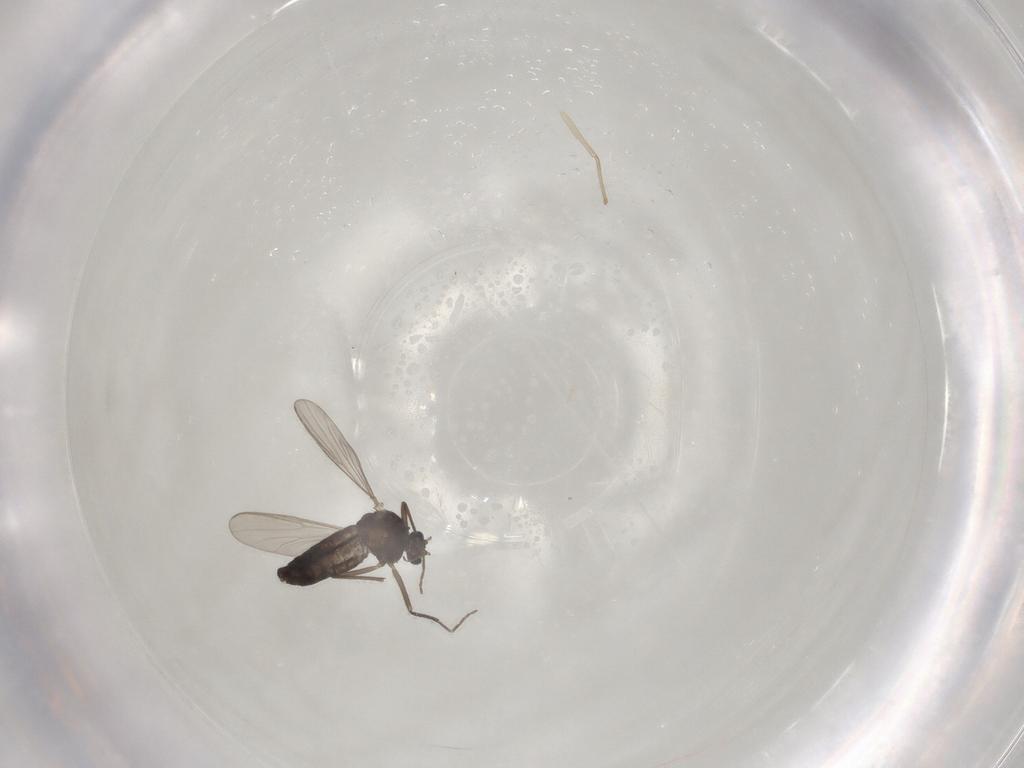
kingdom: Animalia
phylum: Arthropoda
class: Insecta
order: Diptera
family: Chironomidae
